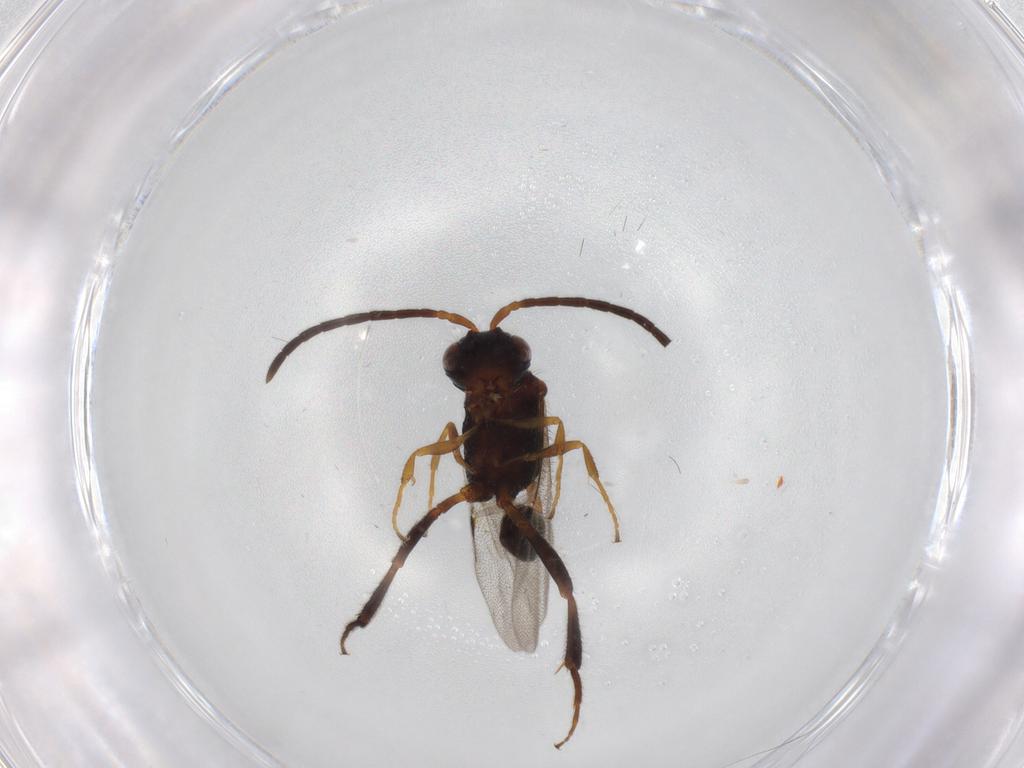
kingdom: Animalia
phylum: Arthropoda
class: Insecta
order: Hymenoptera
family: Evaniidae
